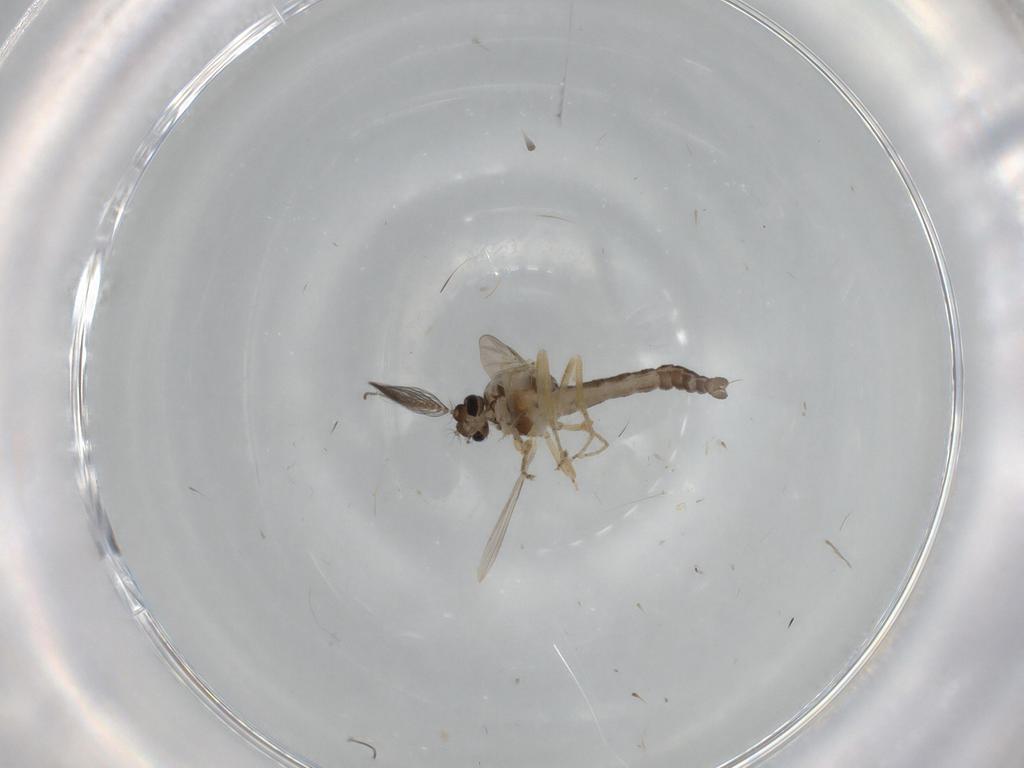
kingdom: Animalia
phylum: Arthropoda
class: Insecta
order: Diptera
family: Ceratopogonidae
